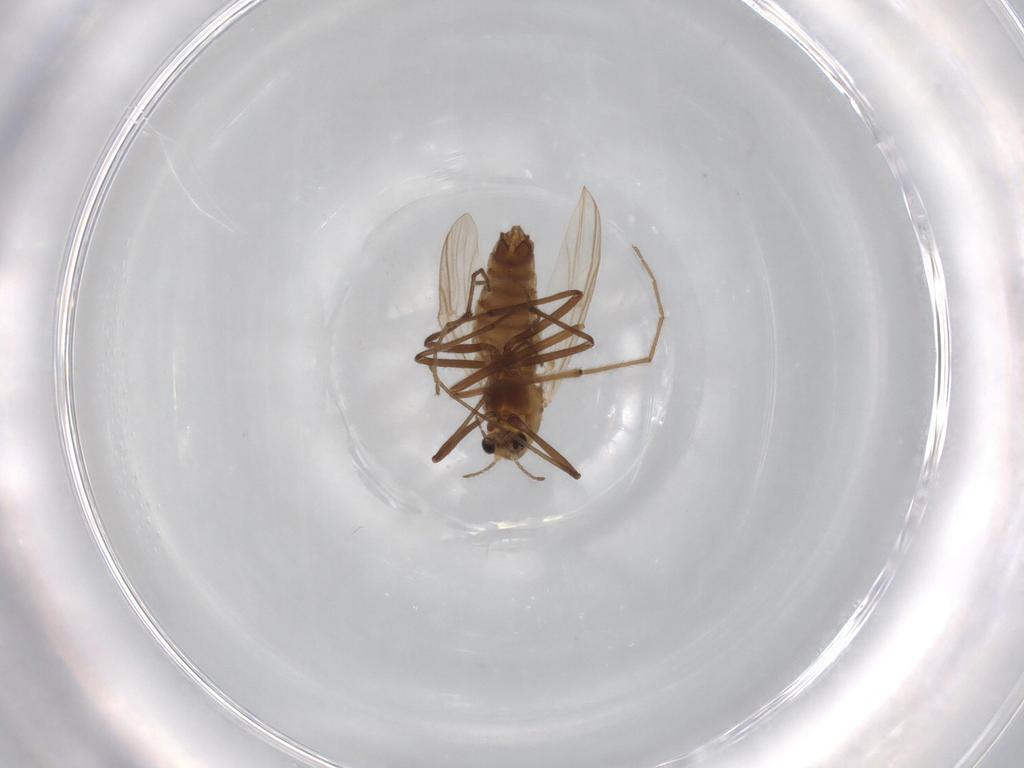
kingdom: Animalia
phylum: Arthropoda
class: Insecta
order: Diptera
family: Chironomidae
